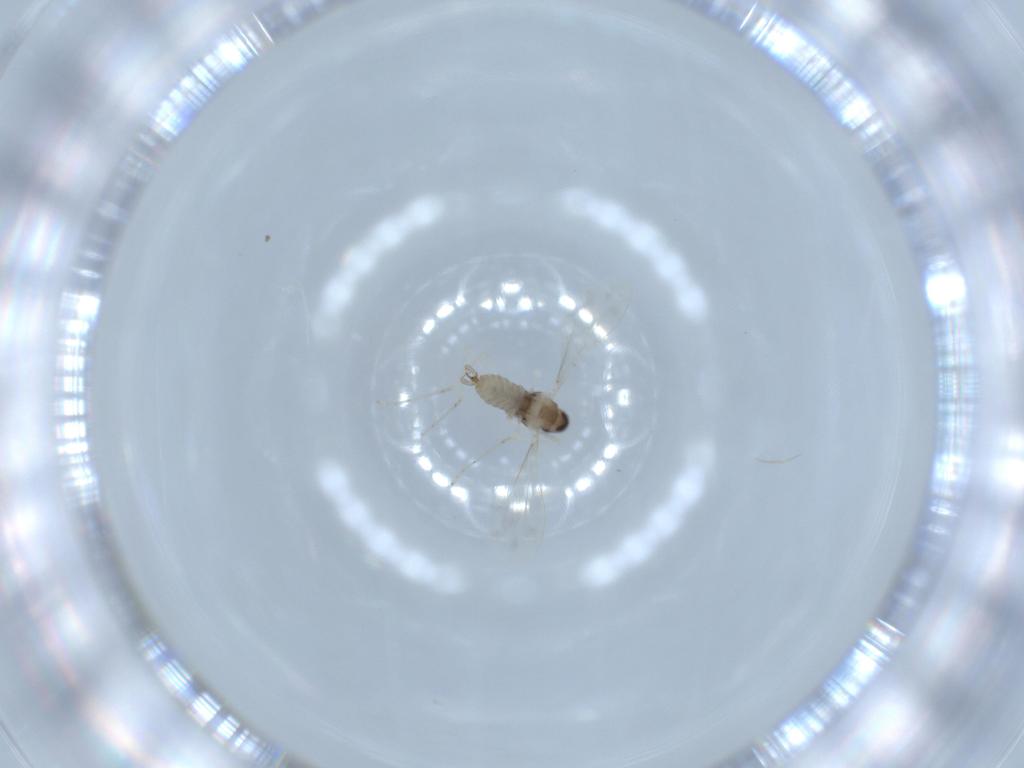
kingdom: Animalia
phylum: Arthropoda
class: Insecta
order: Diptera
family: Cecidomyiidae
